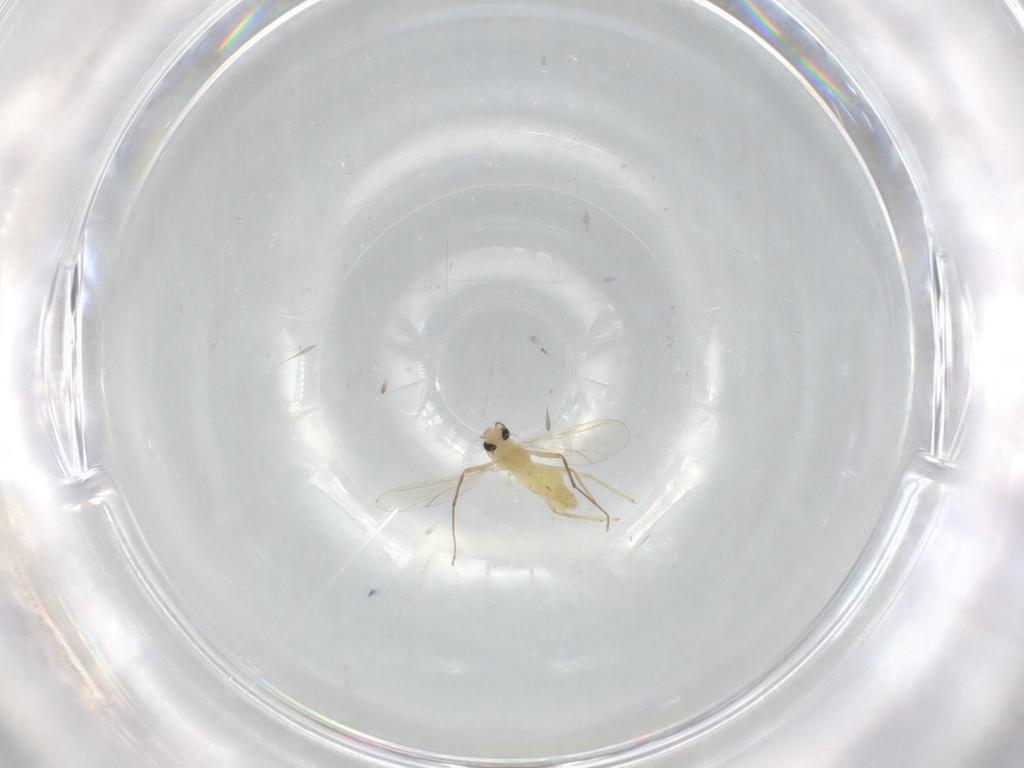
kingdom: Animalia
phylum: Arthropoda
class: Insecta
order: Diptera
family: Chironomidae
